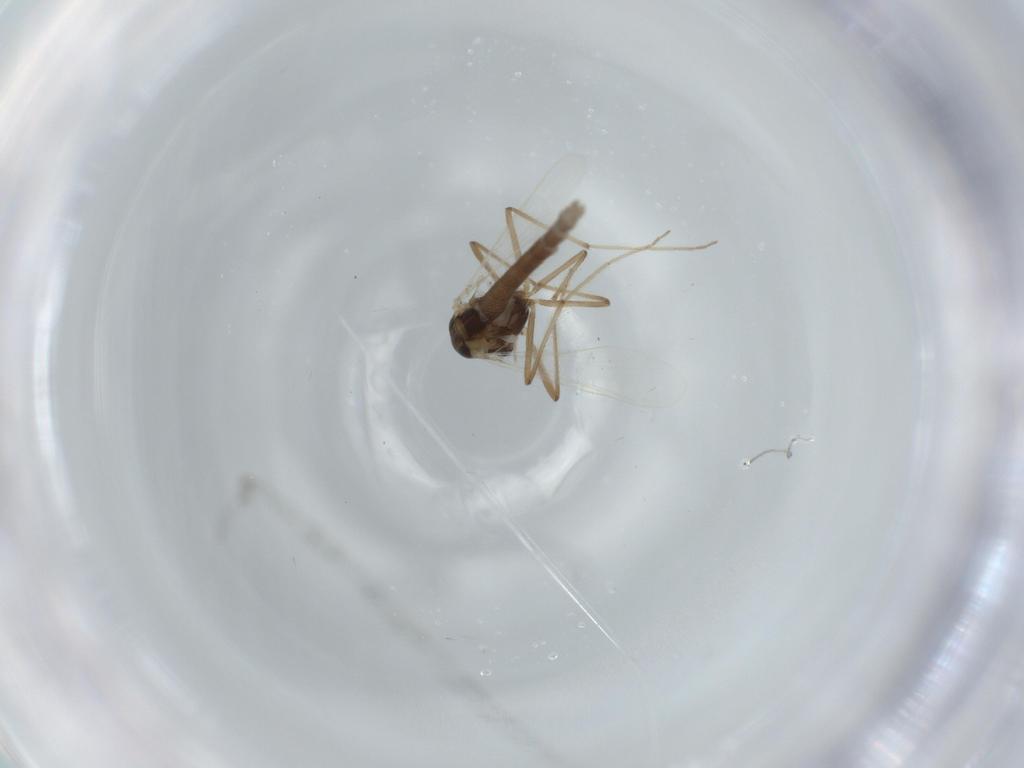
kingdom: Animalia
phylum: Arthropoda
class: Insecta
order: Diptera
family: Chironomidae
